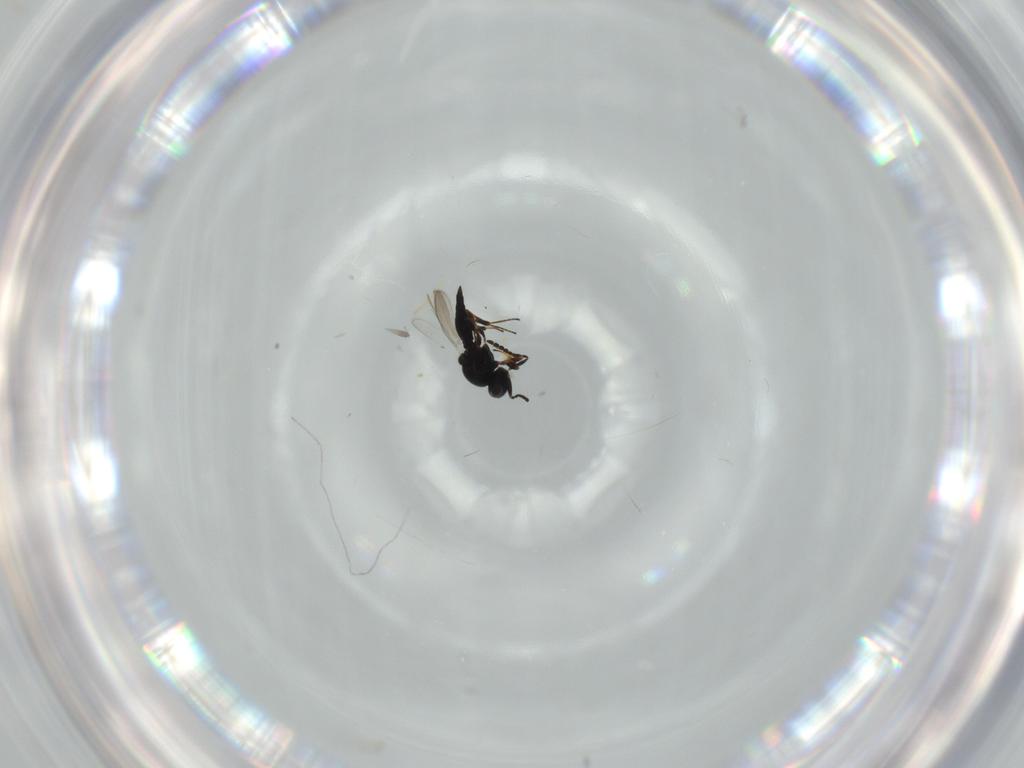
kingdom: Animalia
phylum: Arthropoda
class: Insecta
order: Hymenoptera
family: Platygastridae
